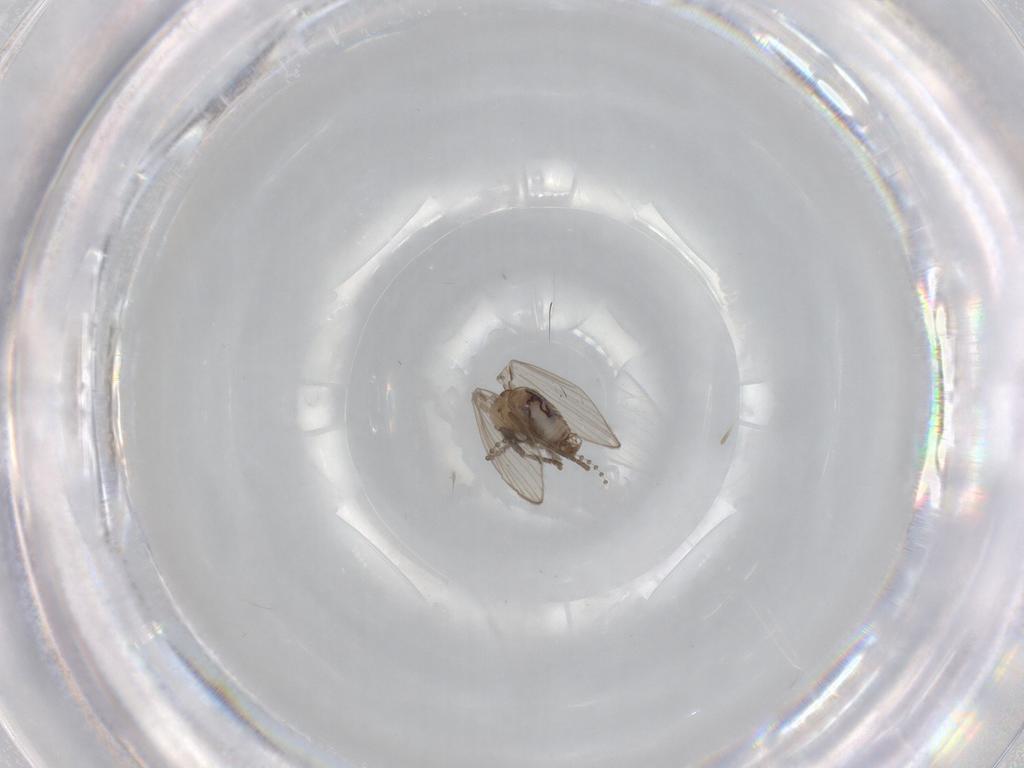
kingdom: Animalia
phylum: Arthropoda
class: Insecta
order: Diptera
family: Psychodidae
